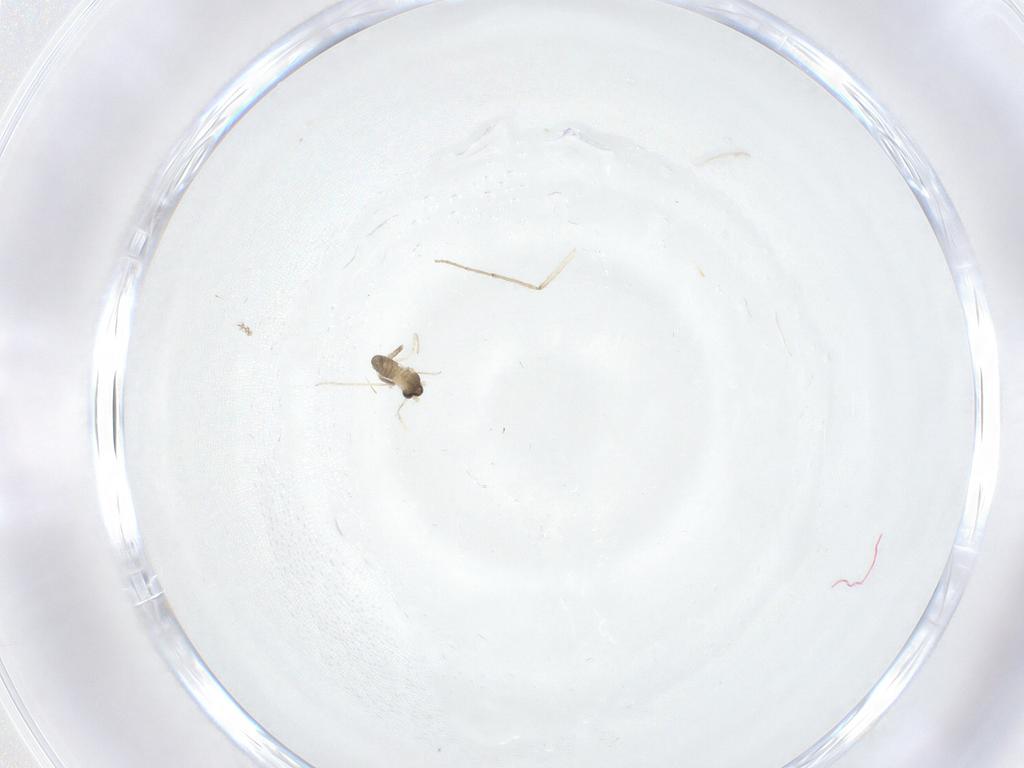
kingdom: Animalia
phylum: Arthropoda
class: Insecta
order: Diptera
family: Cecidomyiidae
